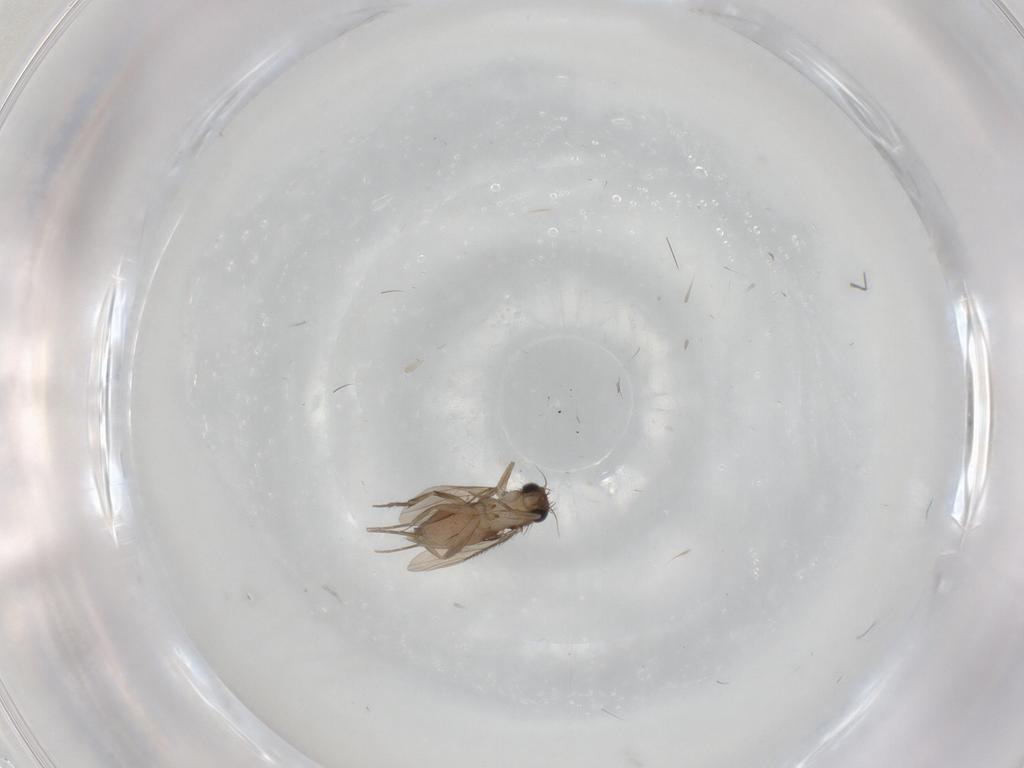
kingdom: Animalia
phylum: Arthropoda
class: Insecta
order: Diptera
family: Phoridae
